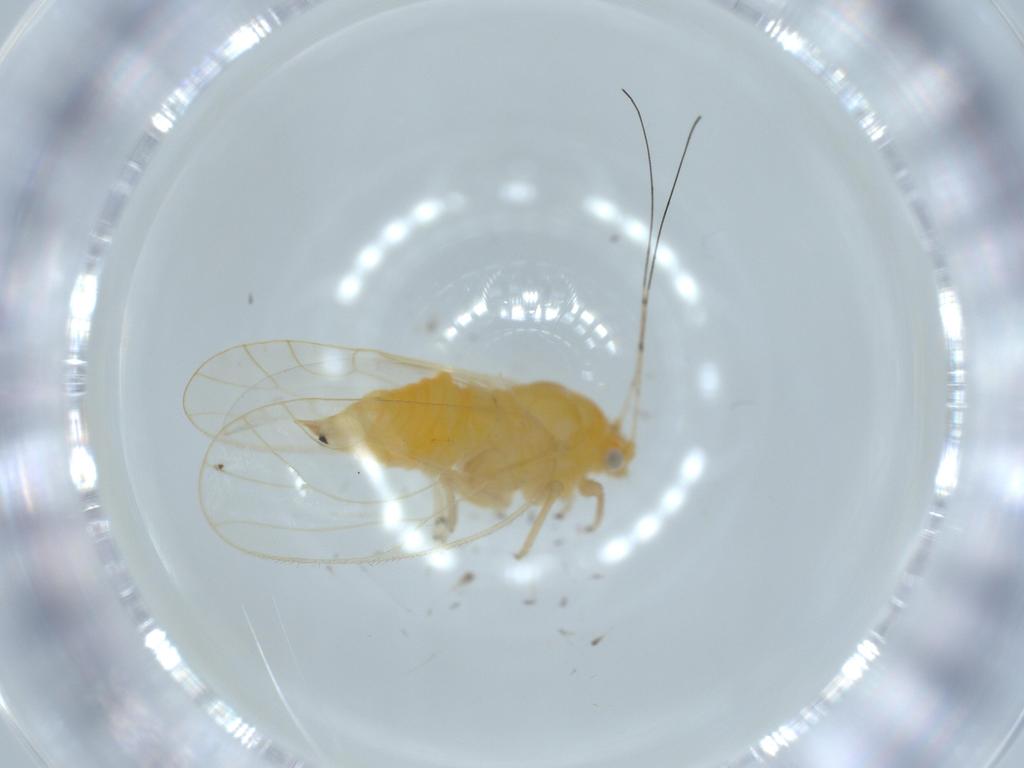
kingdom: Animalia
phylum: Arthropoda
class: Insecta
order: Hemiptera
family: Psyllidae
